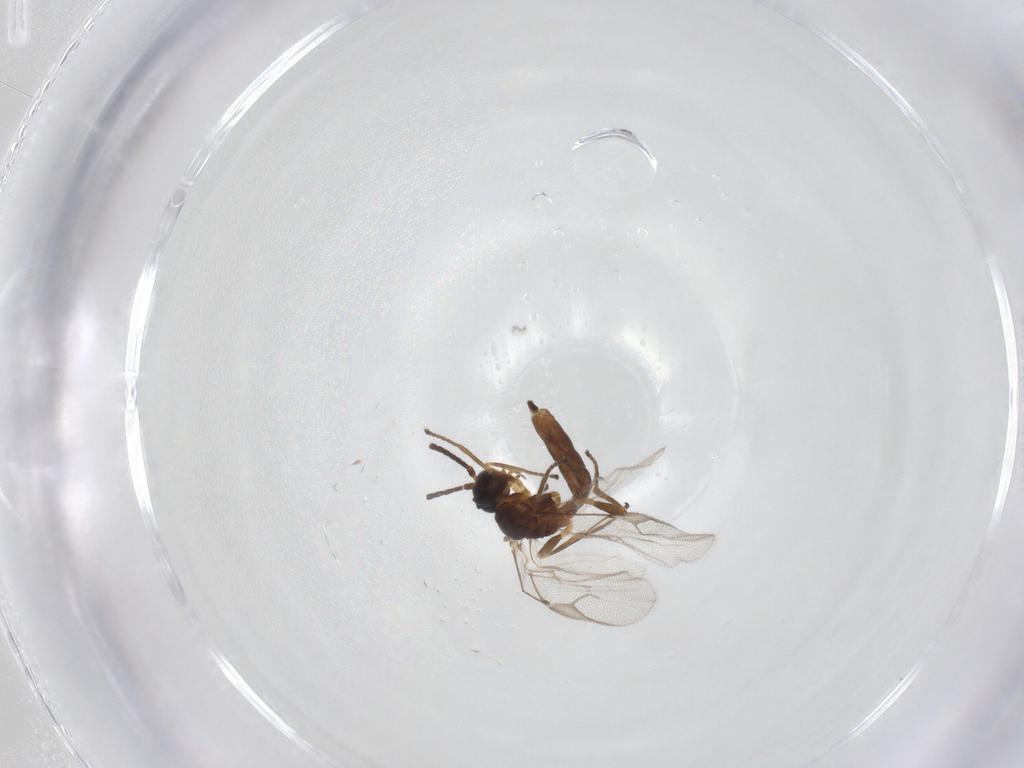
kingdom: Animalia
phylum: Arthropoda
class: Insecta
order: Hymenoptera
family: Braconidae
